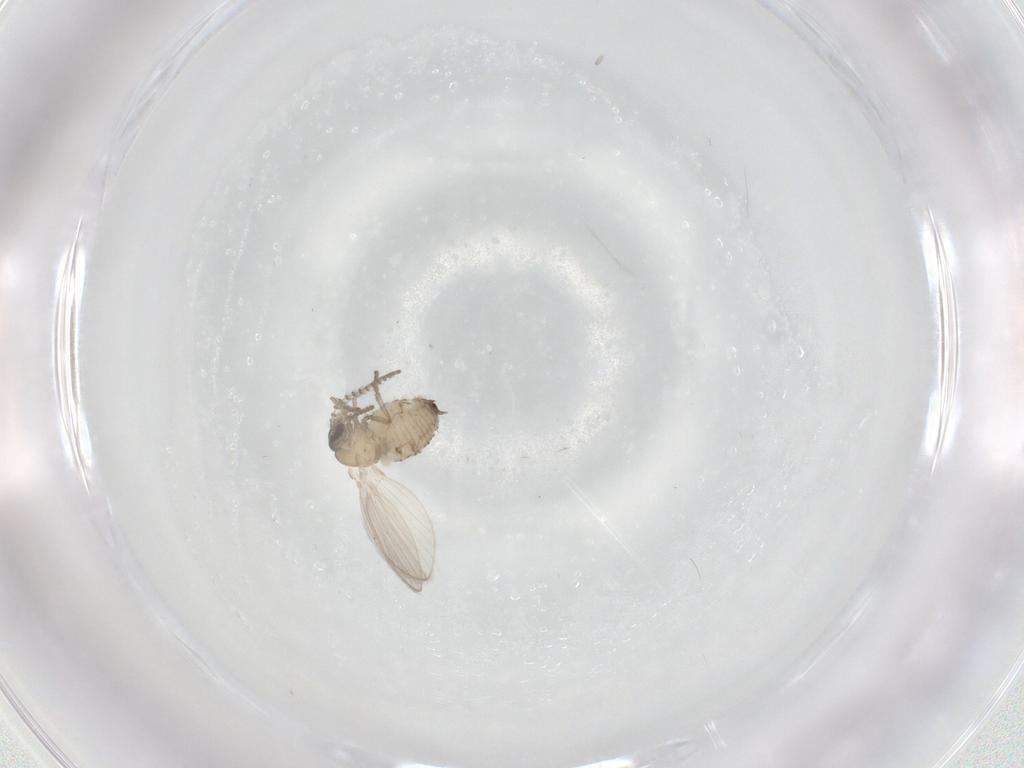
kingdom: Animalia
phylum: Arthropoda
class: Insecta
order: Diptera
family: Psychodidae
